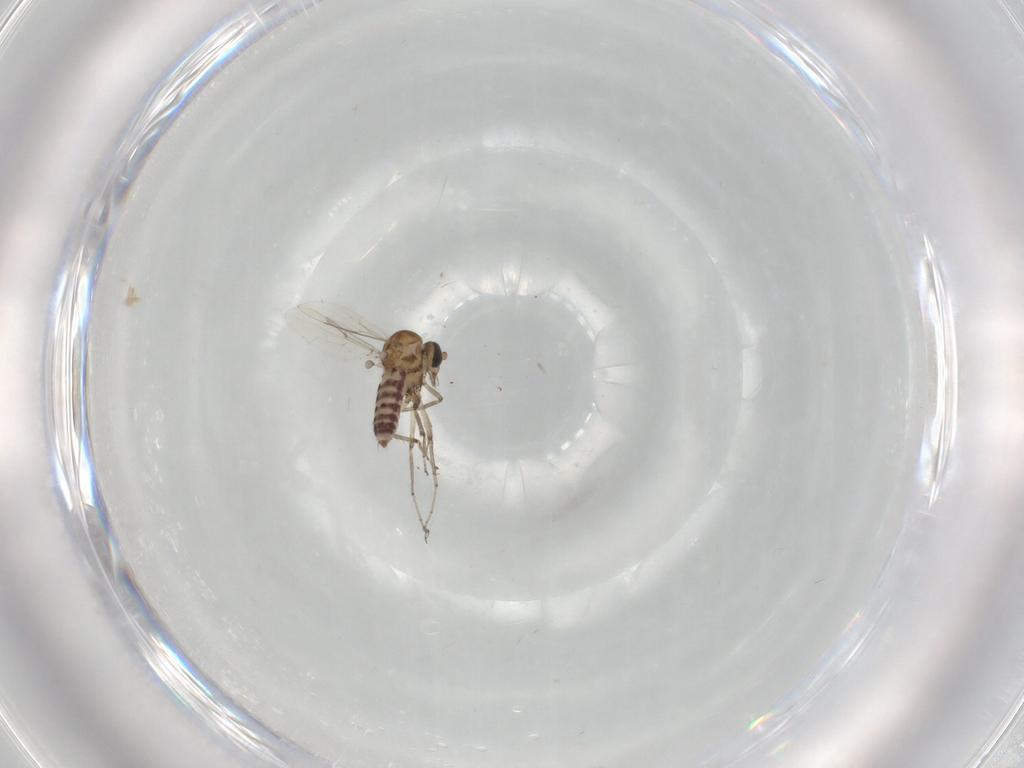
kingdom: Animalia
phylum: Arthropoda
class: Insecta
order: Diptera
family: Ceratopogonidae
